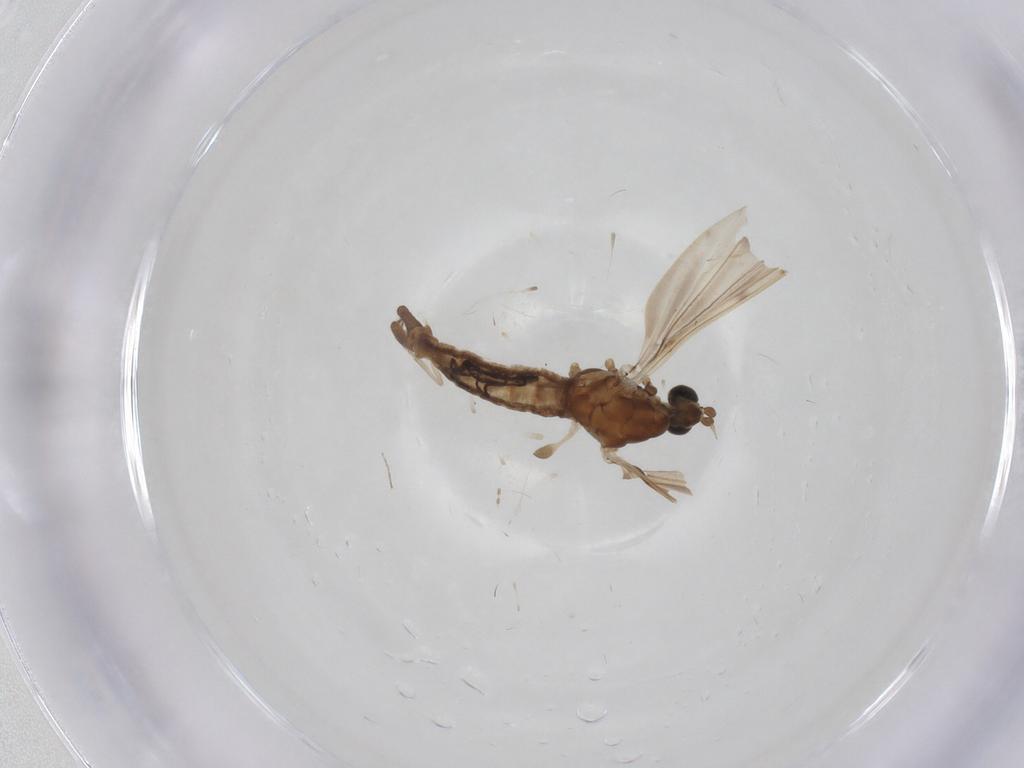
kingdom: Animalia
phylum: Arthropoda
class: Insecta
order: Diptera
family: Limoniidae
